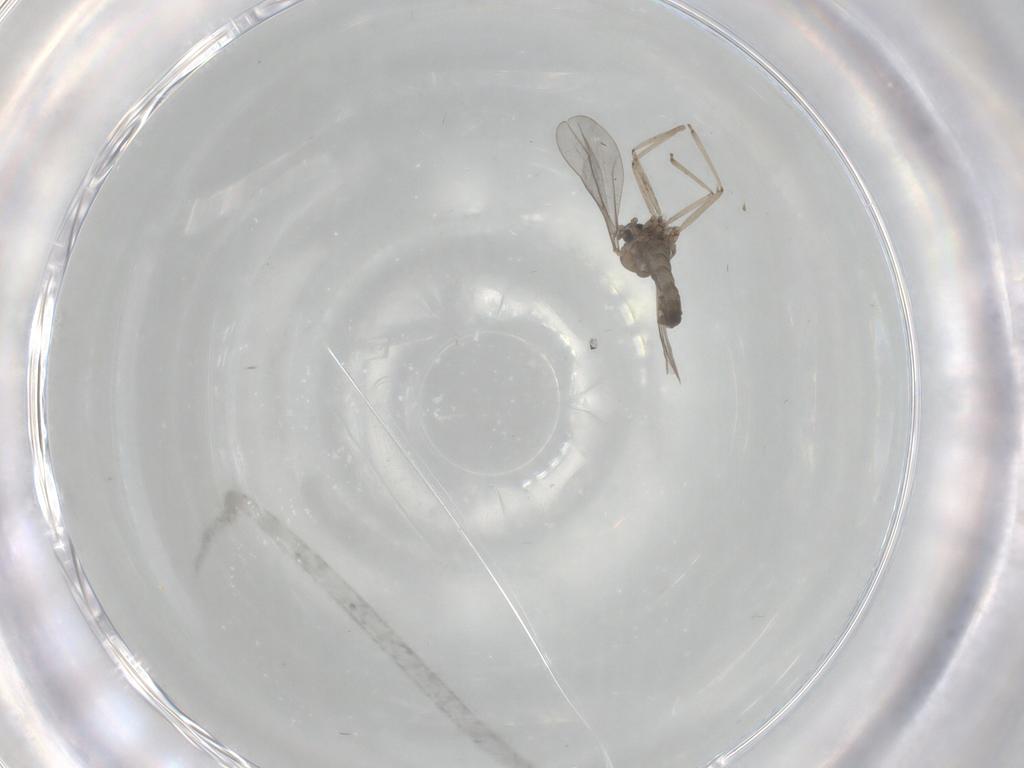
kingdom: Animalia
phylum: Arthropoda
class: Insecta
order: Diptera
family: Cecidomyiidae
